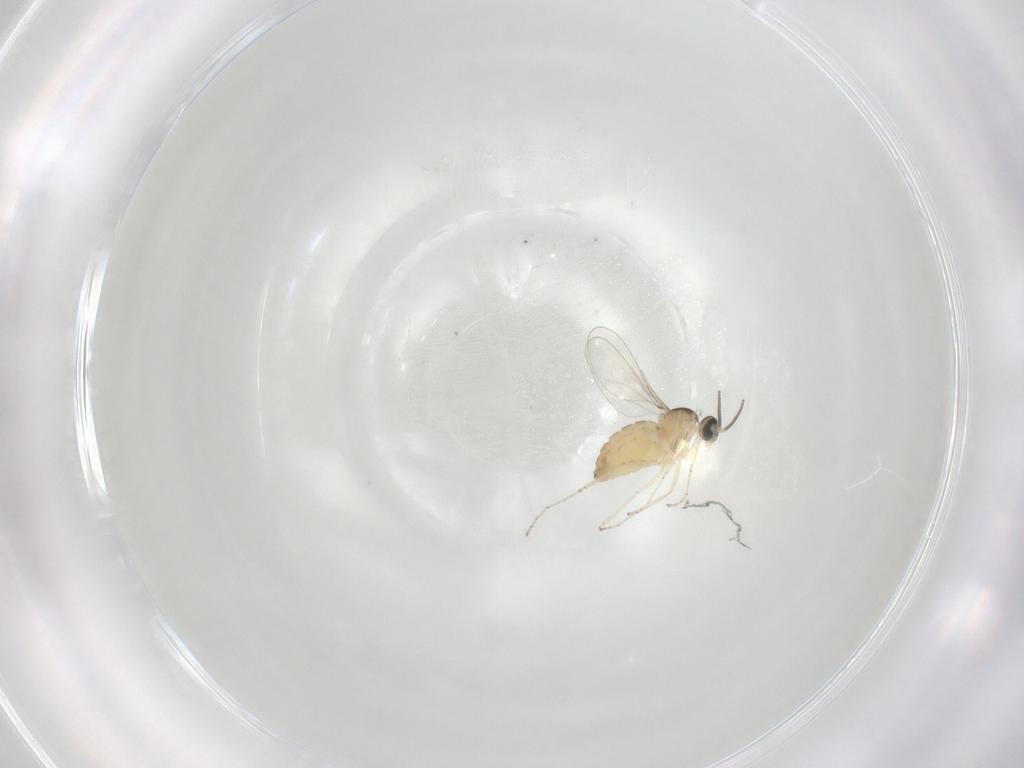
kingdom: Animalia
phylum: Arthropoda
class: Insecta
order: Diptera
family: Cecidomyiidae
